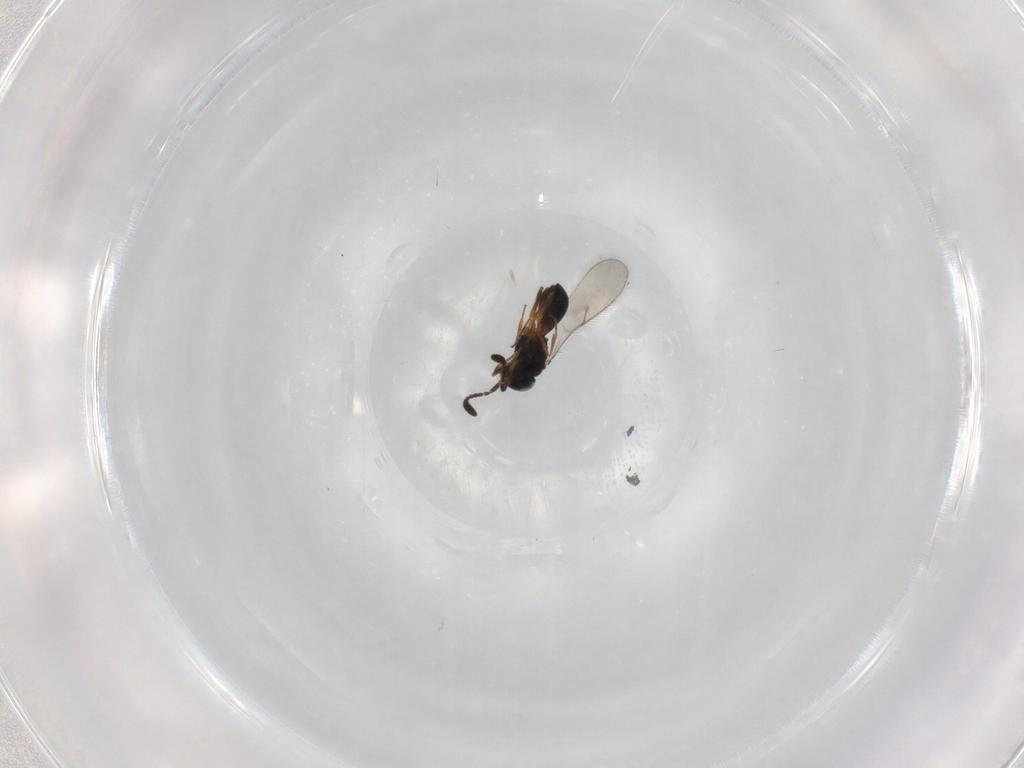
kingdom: Animalia
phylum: Arthropoda
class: Insecta
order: Hymenoptera
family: Scelionidae
